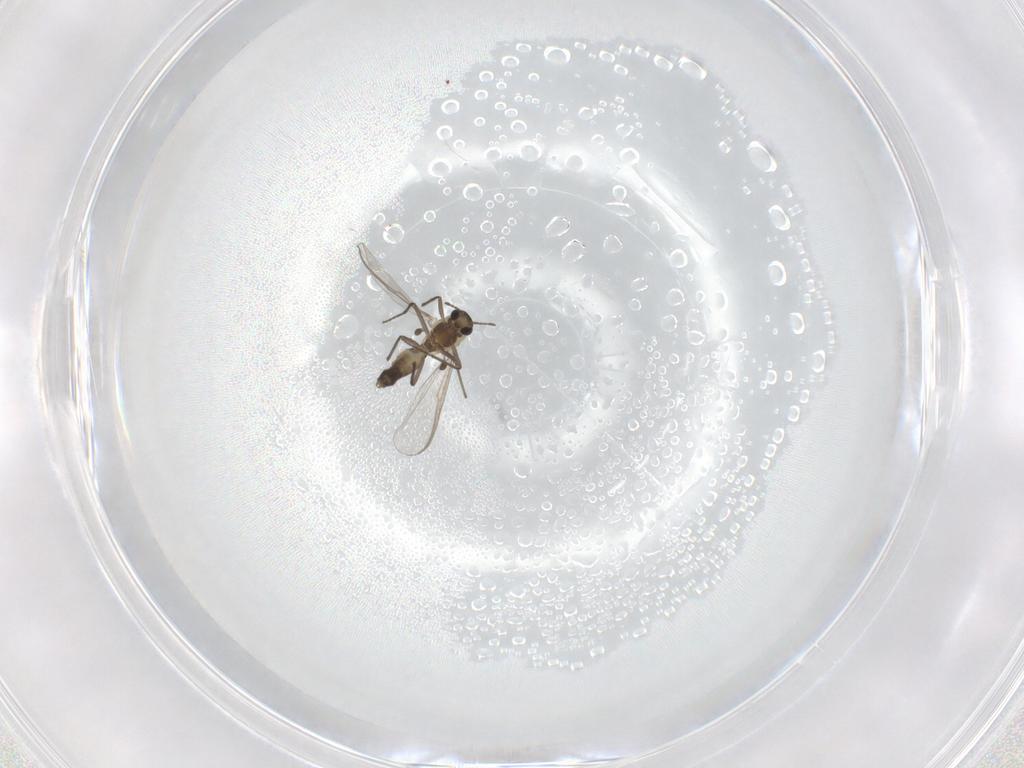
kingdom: Animalia
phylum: Arthropoda
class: Insecta
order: Diptera
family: Chironomidae
